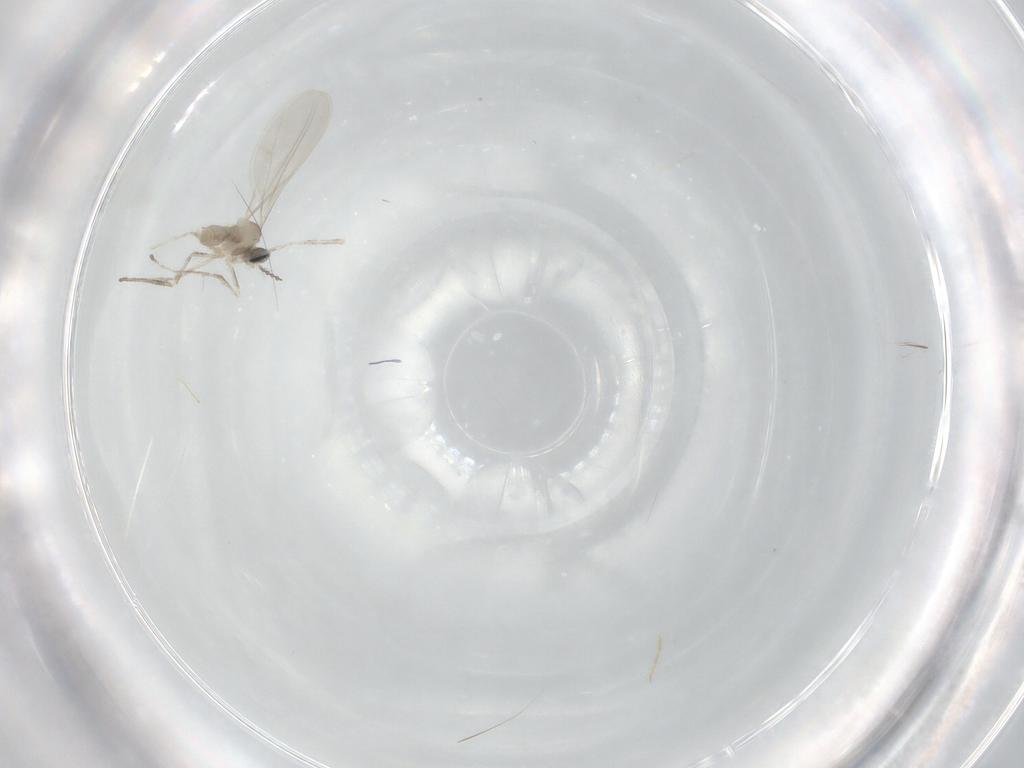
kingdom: Animalia
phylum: Arthropoda
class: Insecta
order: Diptera
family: Cecidomyiidae
